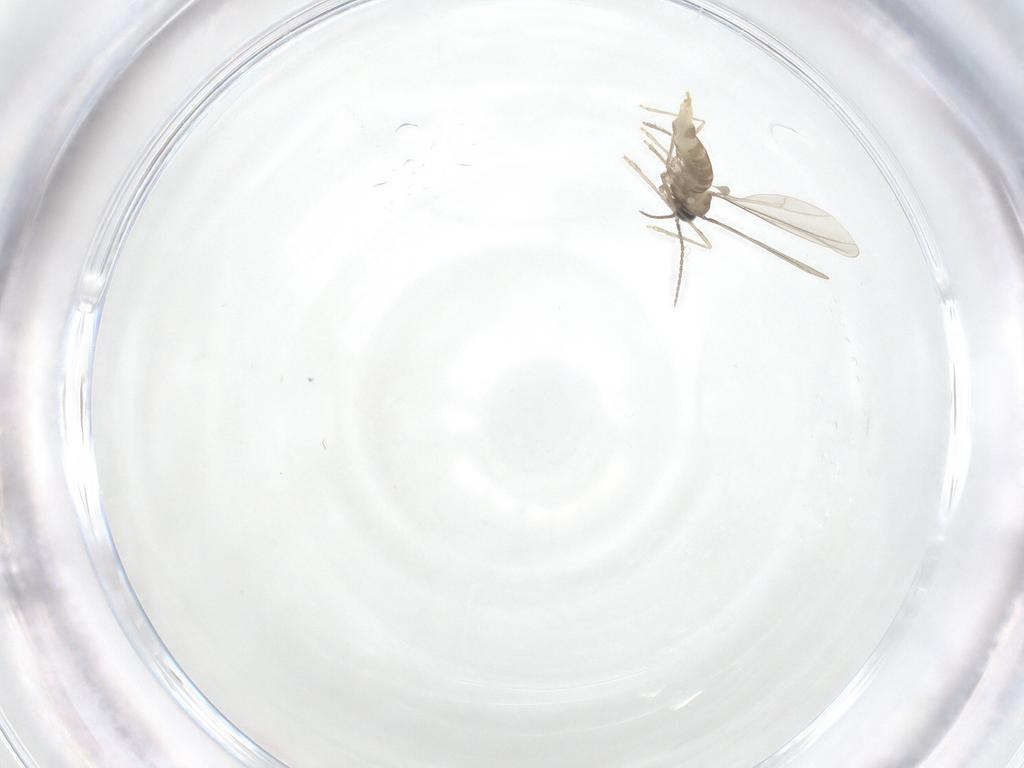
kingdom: Animalia
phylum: Arthropoda
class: Insecta
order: Diptera
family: Cecidomyiidae
